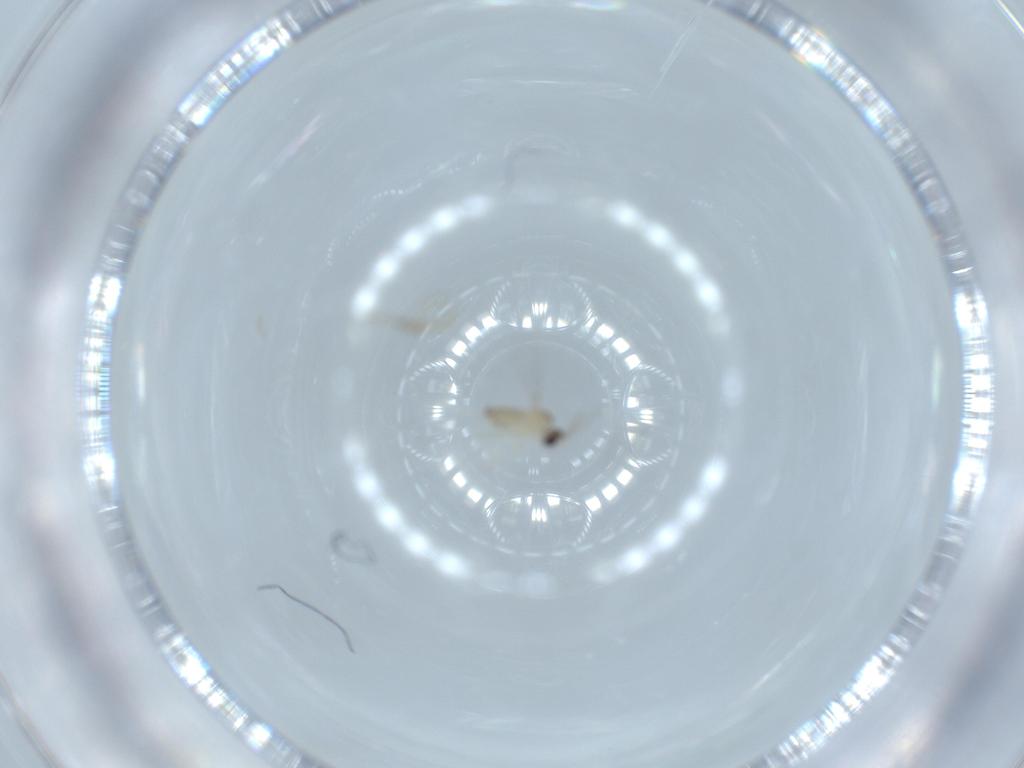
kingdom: Animalia
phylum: Arthropoda
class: Insecta
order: Diptera
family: Cecidomyiidae
